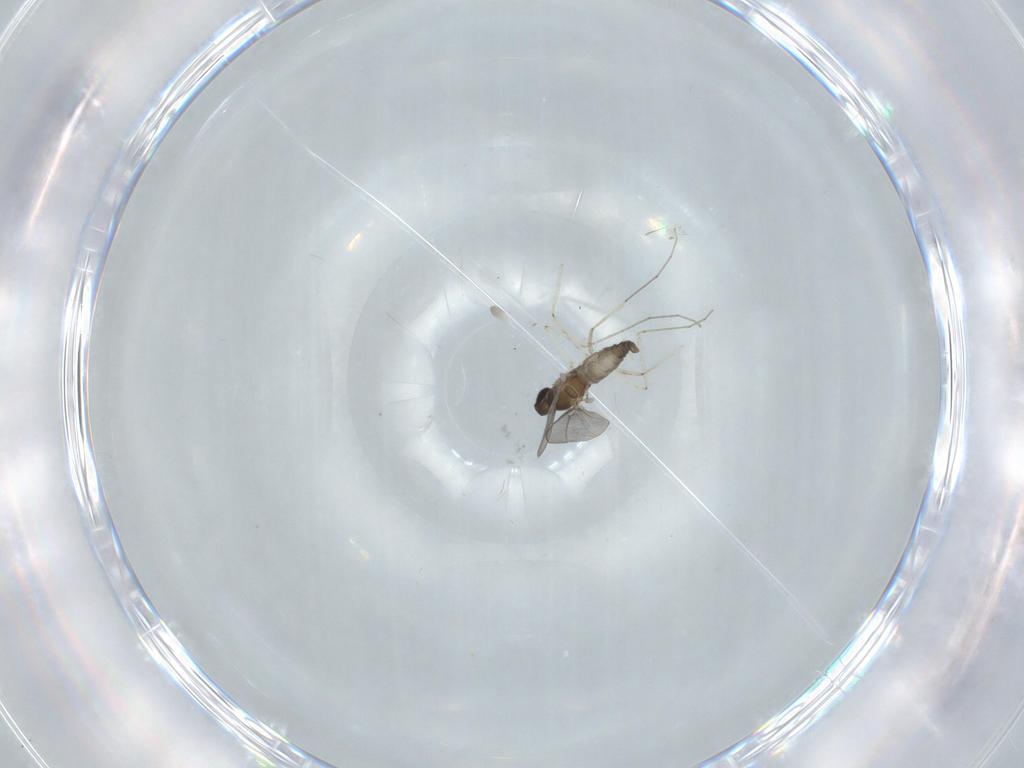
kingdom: Animalia
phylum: Arthropoda
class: Insecta
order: Diptera
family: Cecidomyiidae
